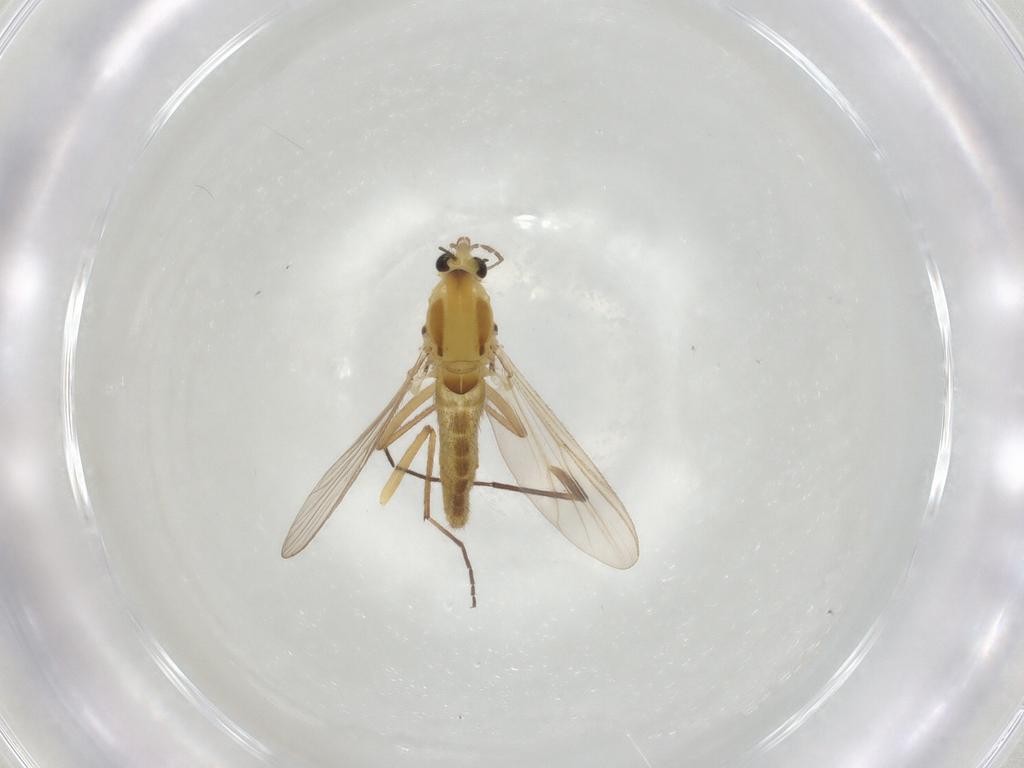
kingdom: Animalia
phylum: Arthropoda
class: Insecta
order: Diptera
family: Chironomidae
